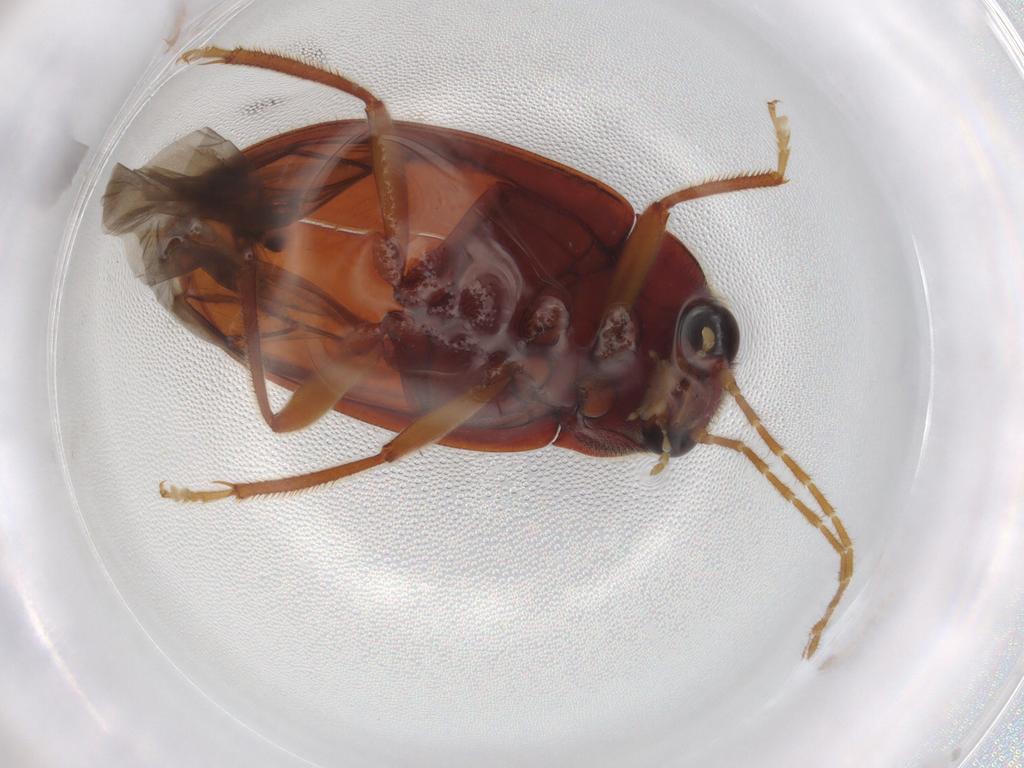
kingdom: Animalia
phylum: Arthropoda
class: Insecta
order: Coleoptera
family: Ptilodactylidae
